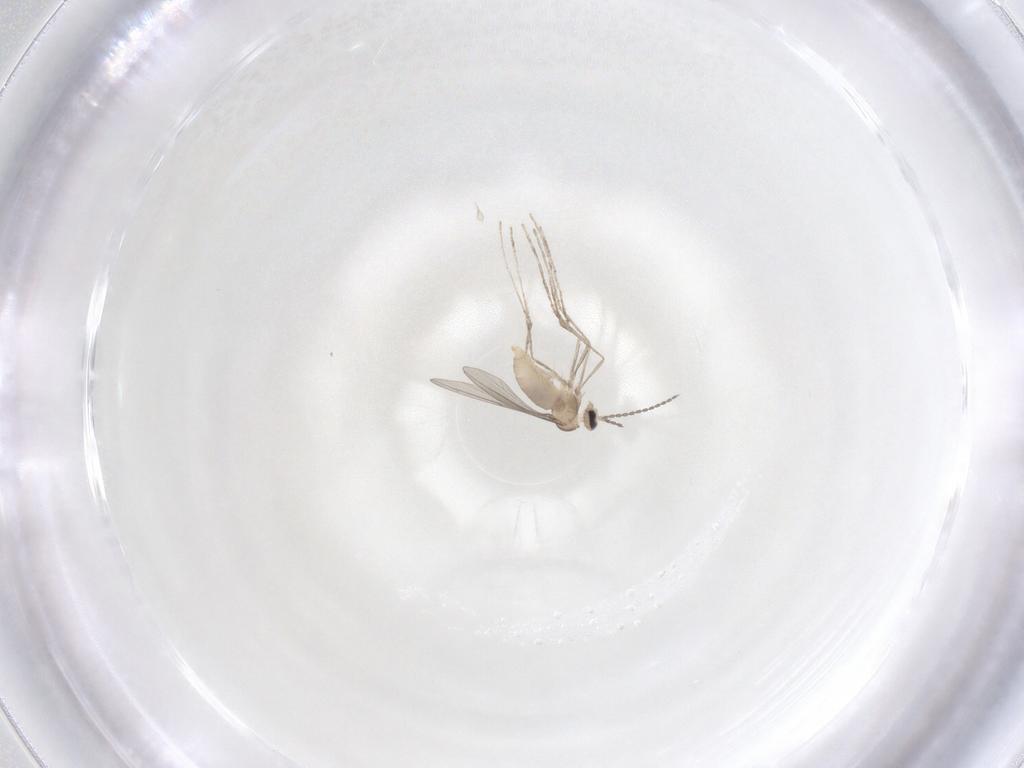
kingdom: Animalia
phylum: Arthropoda
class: Insecta
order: Diptera
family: Cecidomyiidae
